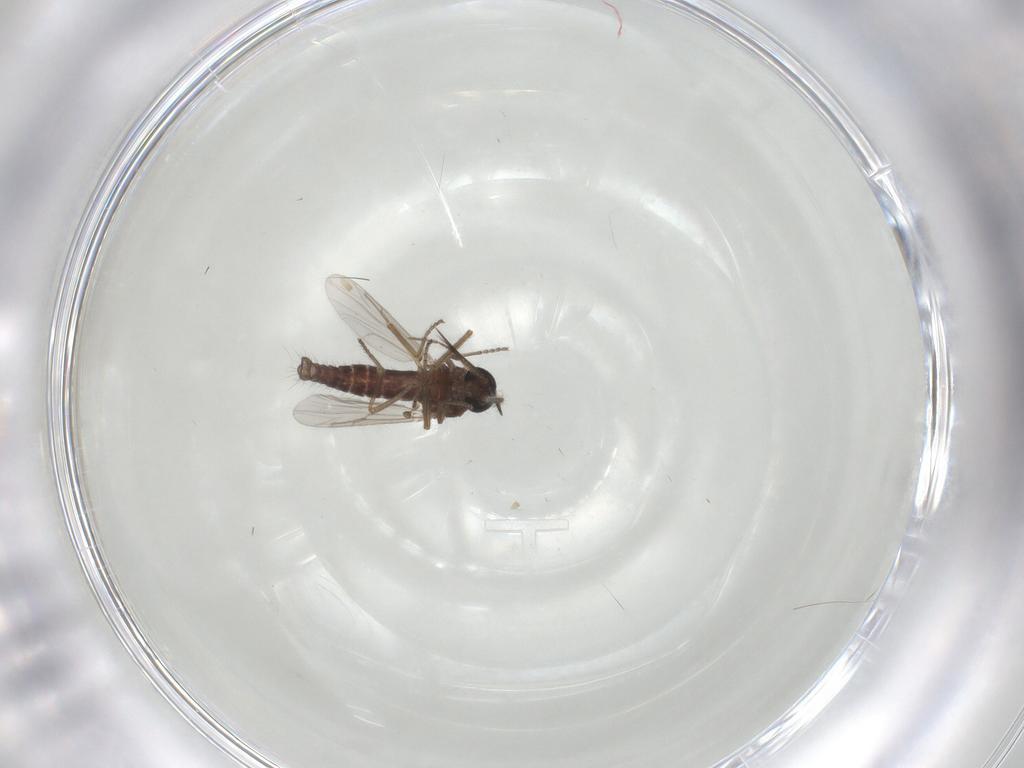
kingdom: Animalia
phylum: Arthropoda
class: Insecta
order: Diptera
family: Ceratopogonidae
